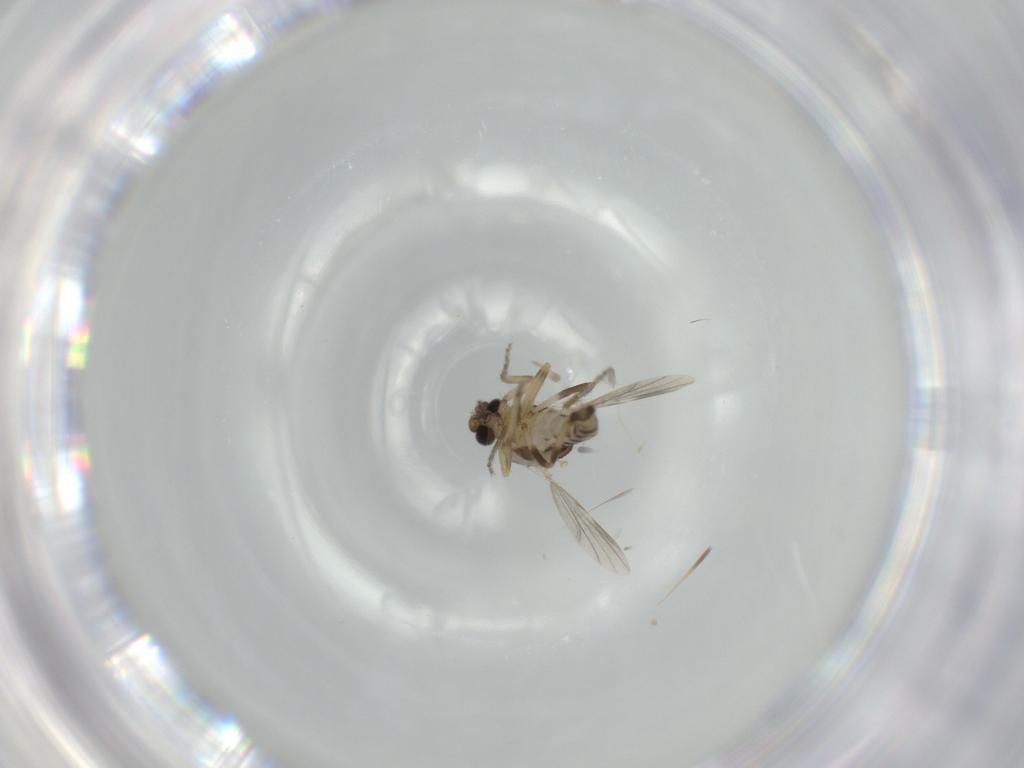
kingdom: Animalia
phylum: Arthropoda
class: Insecta
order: Diptera
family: Ceratopogonidae
